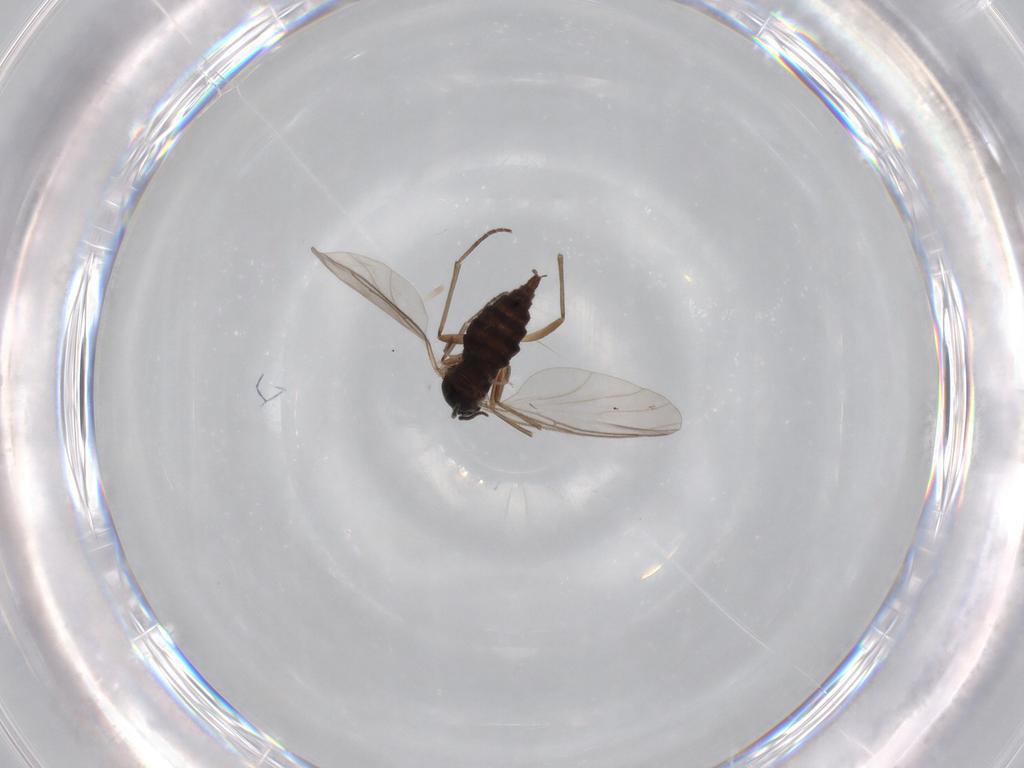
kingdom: Animalia
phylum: Arthropoda
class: Insecta
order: Diptera
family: Sciaridae
